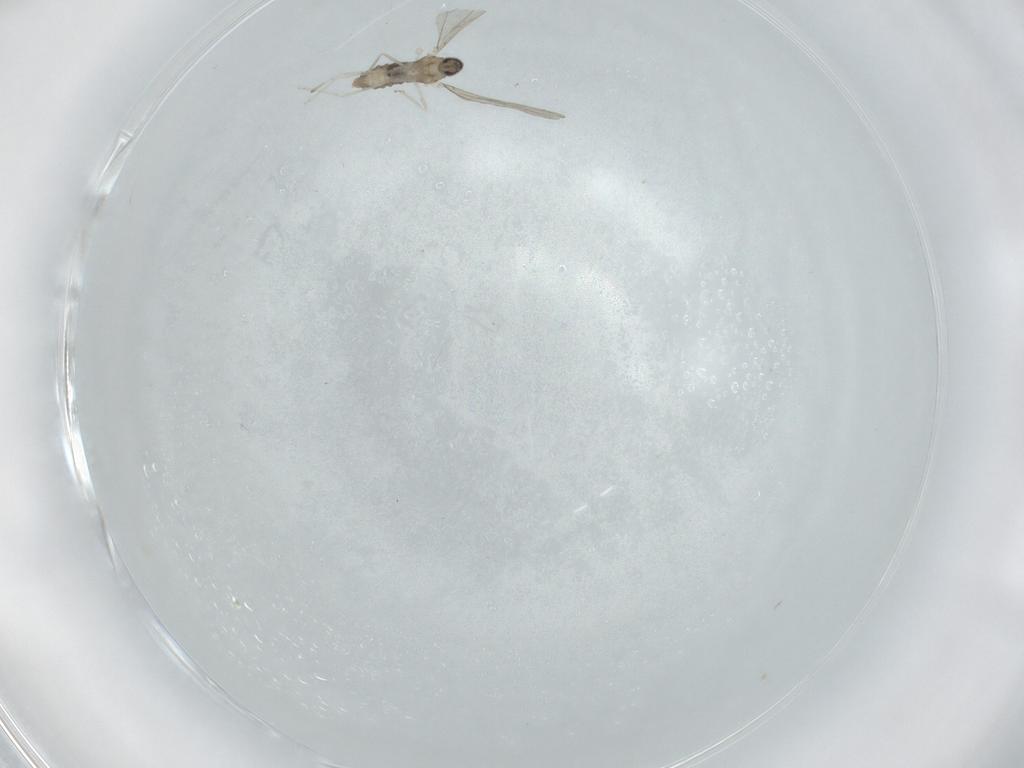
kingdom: Animalia
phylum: Arthropoda
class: Insecta
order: Diptera
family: Cecidomyiidae
